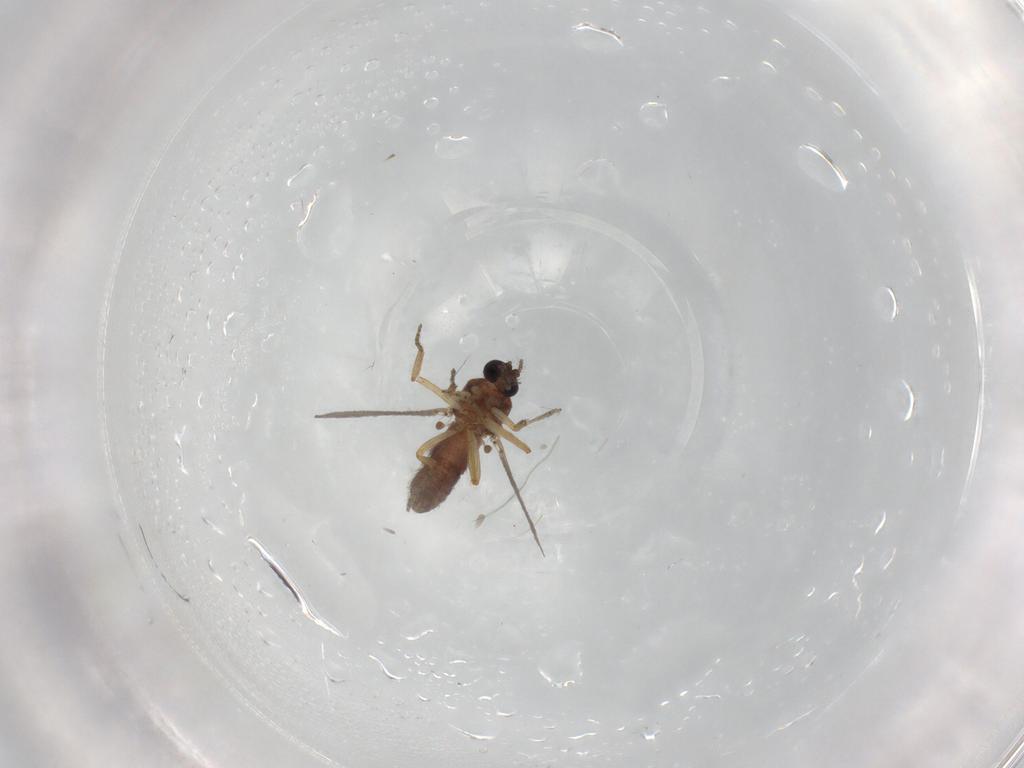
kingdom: Animalia
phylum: Arthropoda
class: Insecta
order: Diptera
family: Ceratopogonidae
